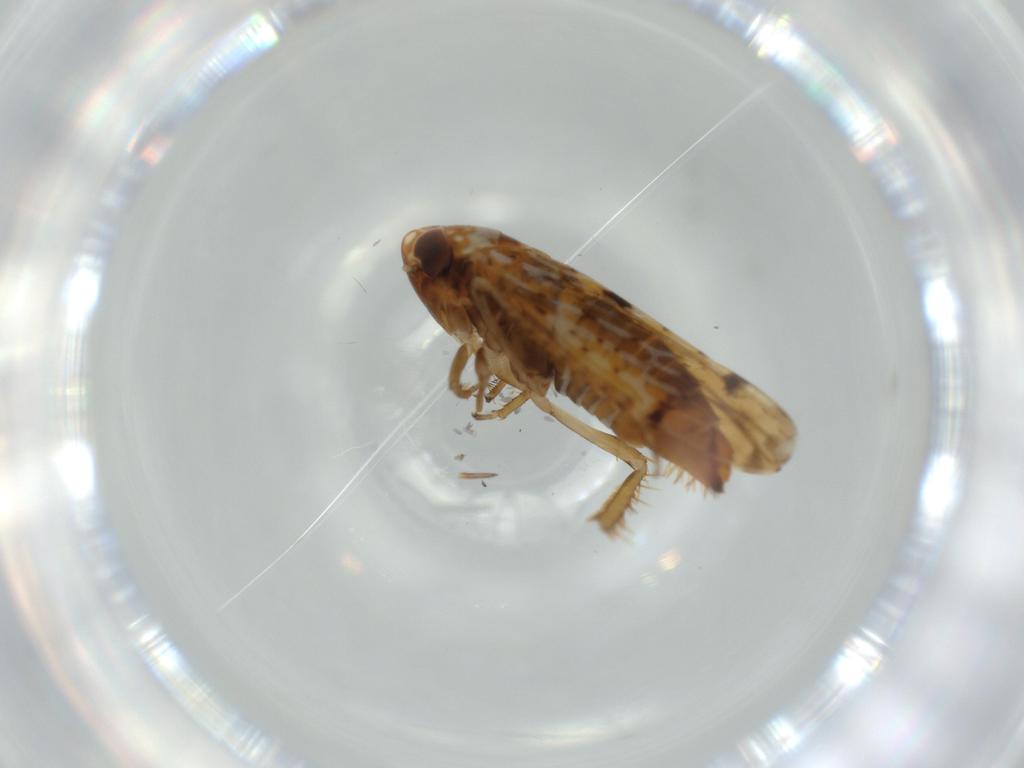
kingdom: Animalia
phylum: Arthropoda
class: Insecta
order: Hemiptera
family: Cicadellidae
